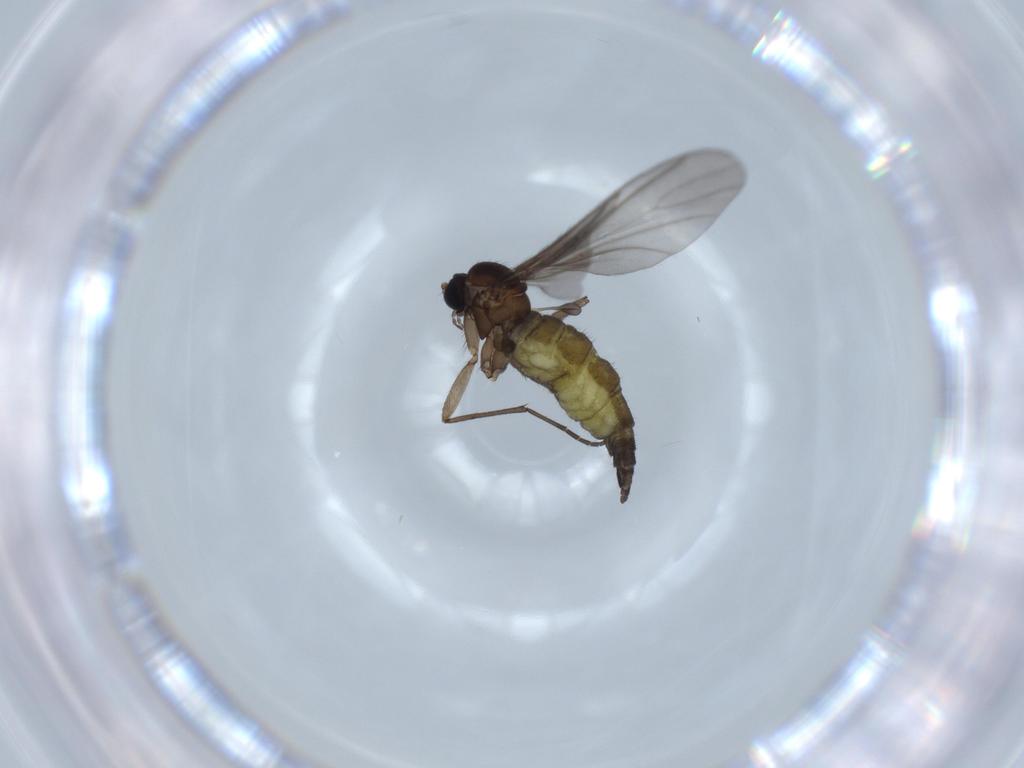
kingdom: Animalia
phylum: Arthropoda
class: Insecta
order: Diptera
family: Sciaridae
